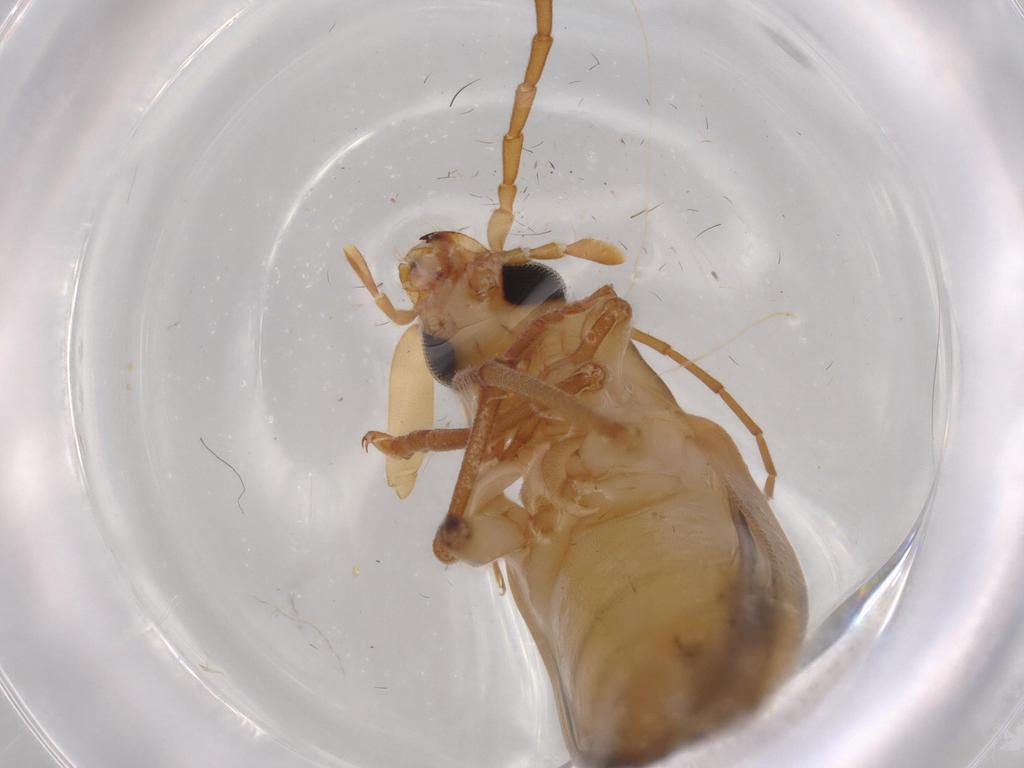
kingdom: Animalia
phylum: Arthropoda
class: Insecta
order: Coleoptera
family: Oedemeridae
